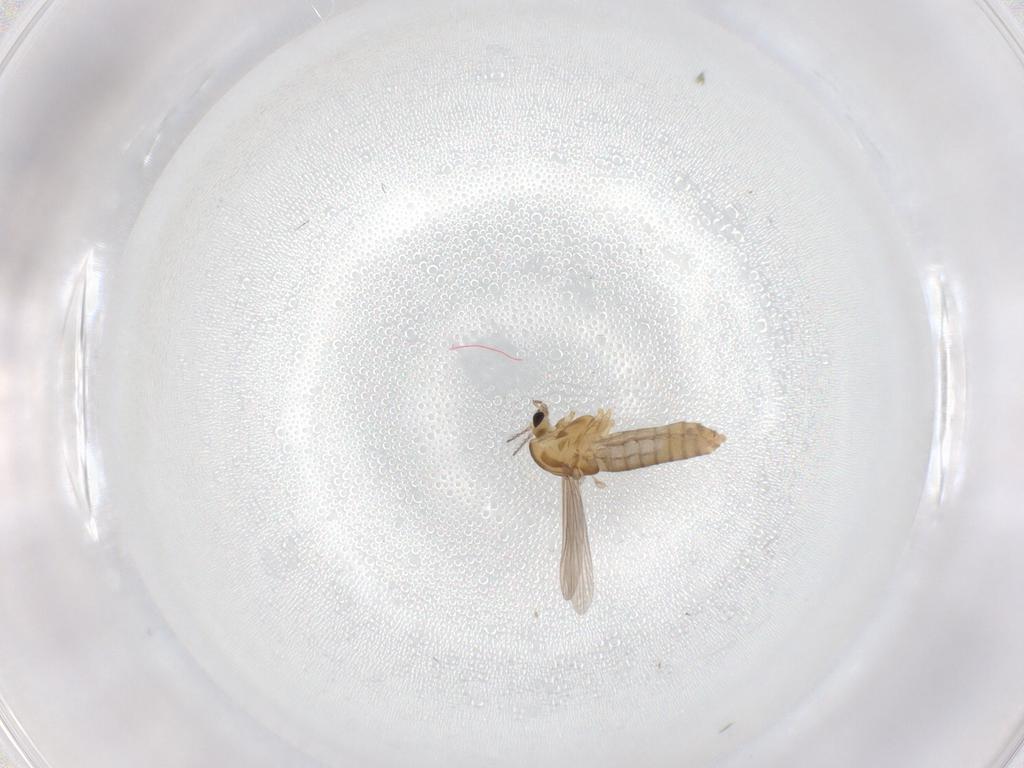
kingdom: Animalia
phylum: Arthropoda
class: Insecta
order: Diptera
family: Chironomidae
